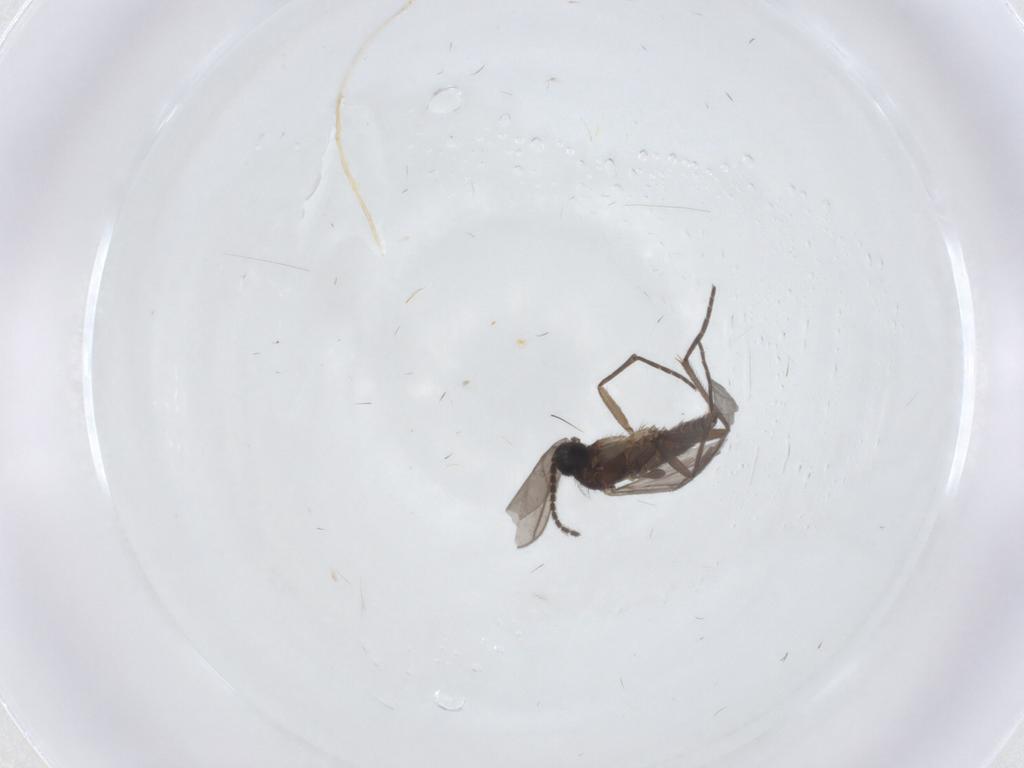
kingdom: Animalia
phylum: Arthropoda
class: Insecta
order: Diptera
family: Sciaridae
